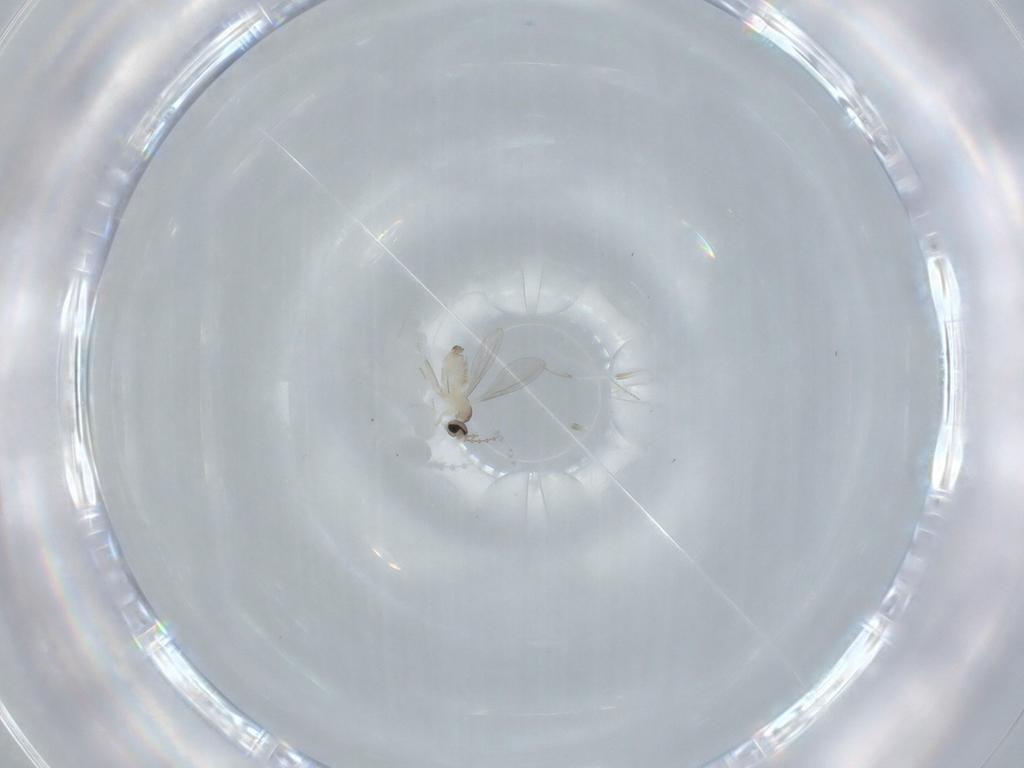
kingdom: Animalia
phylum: Arthropoda
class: Insecta
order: Diptera
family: Cecidomyiidae
